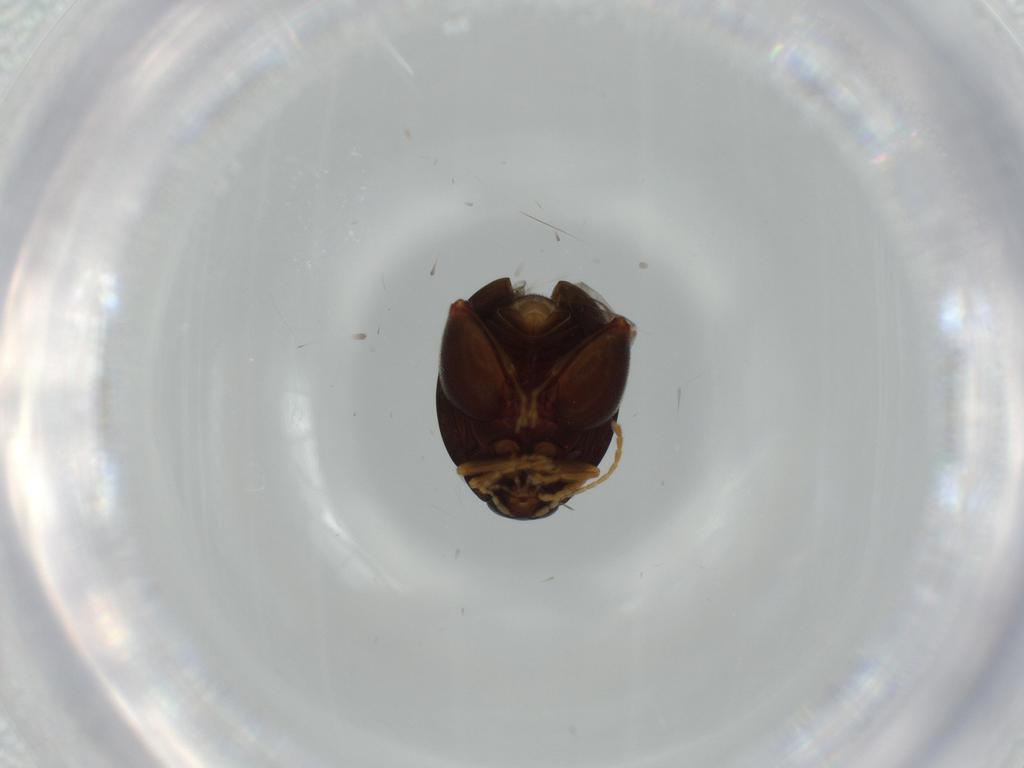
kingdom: Animalia
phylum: Arthropoda
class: Insecta
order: Coleoptera
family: Chrysomelidae
